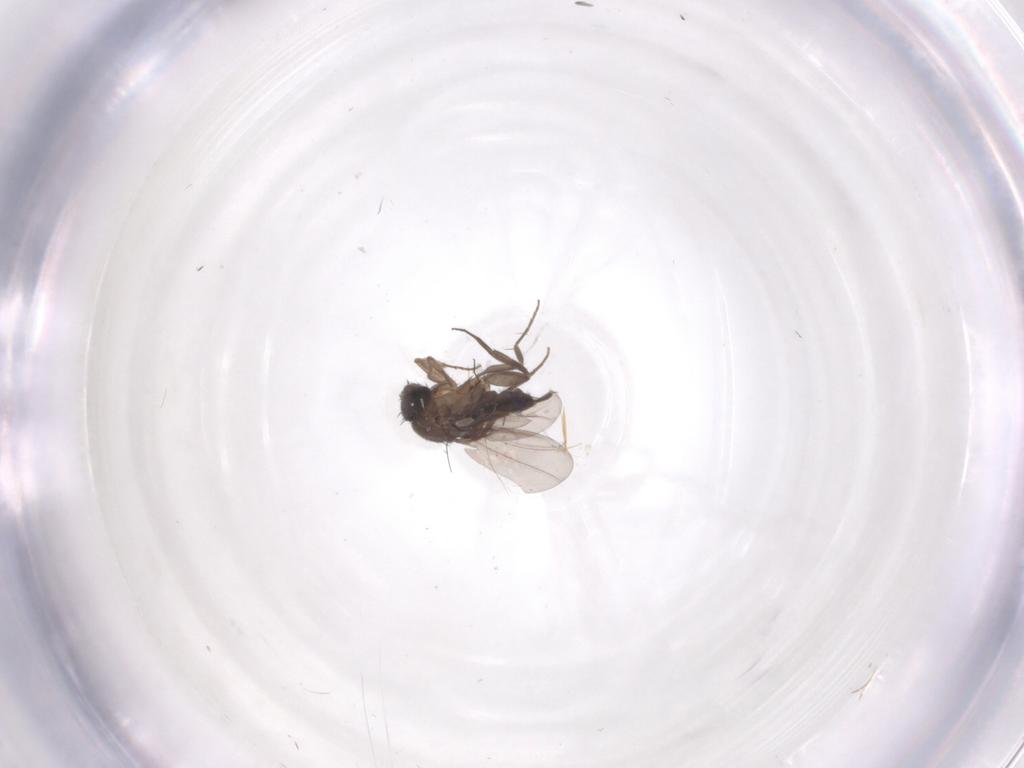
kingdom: Animalia
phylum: Arthropoda
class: Insecta
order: Diptera
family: Phoridae
